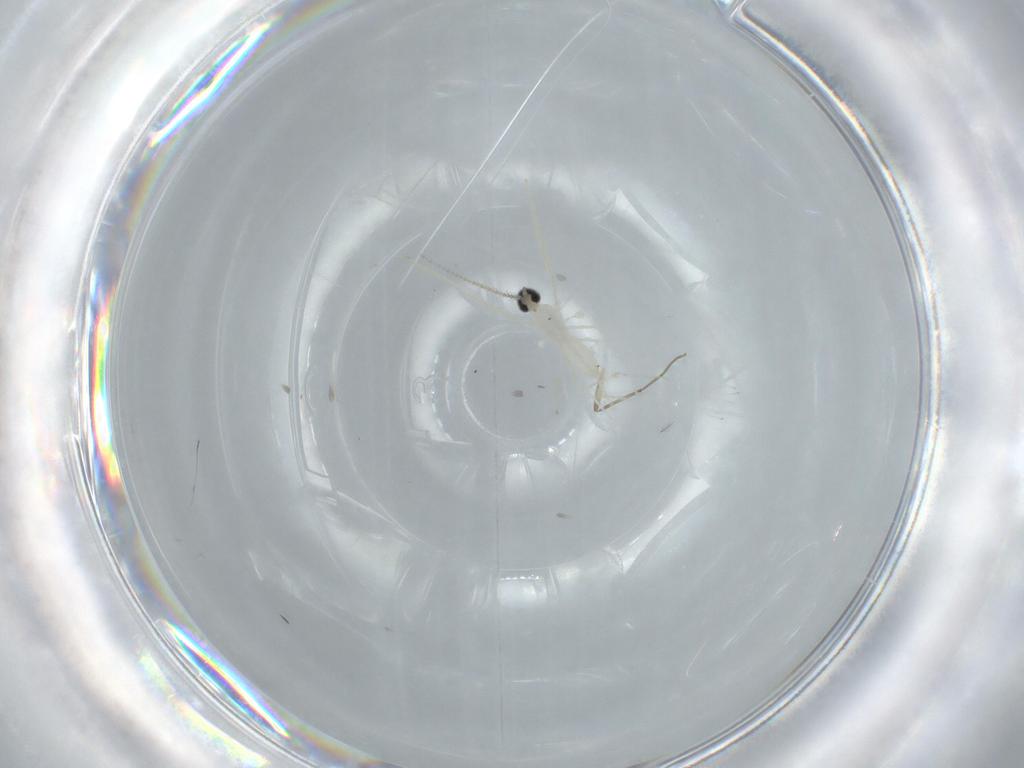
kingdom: Animalia
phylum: Arthropoda
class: Insecta
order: Diptera
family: Cecidomyiidae
